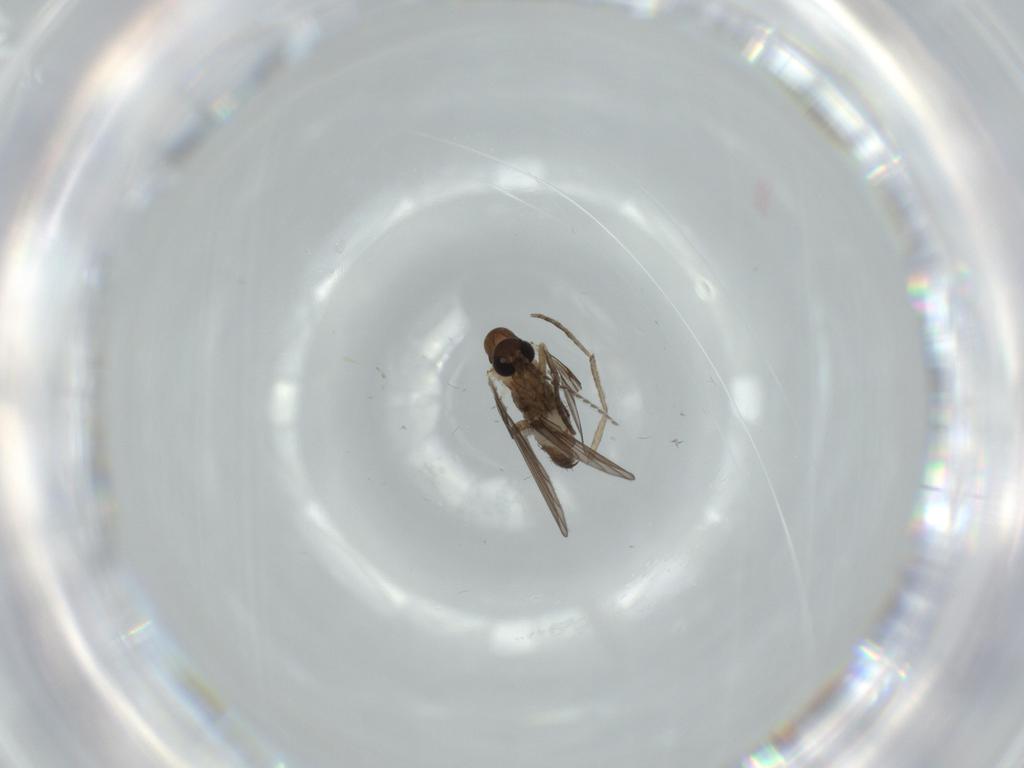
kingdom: Animalia
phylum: Arthropoda
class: Insecta
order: Diptera
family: Psychodidae
